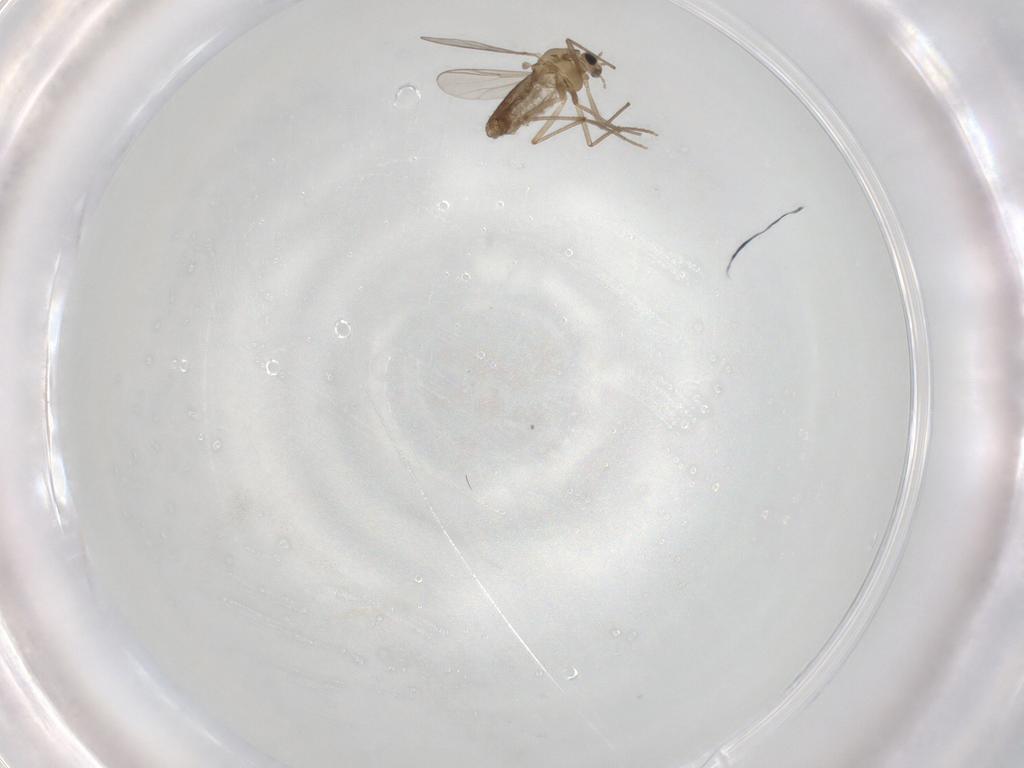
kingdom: Animalia
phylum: Arthropoda
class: Insecta
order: Diptera
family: Chironomidae
